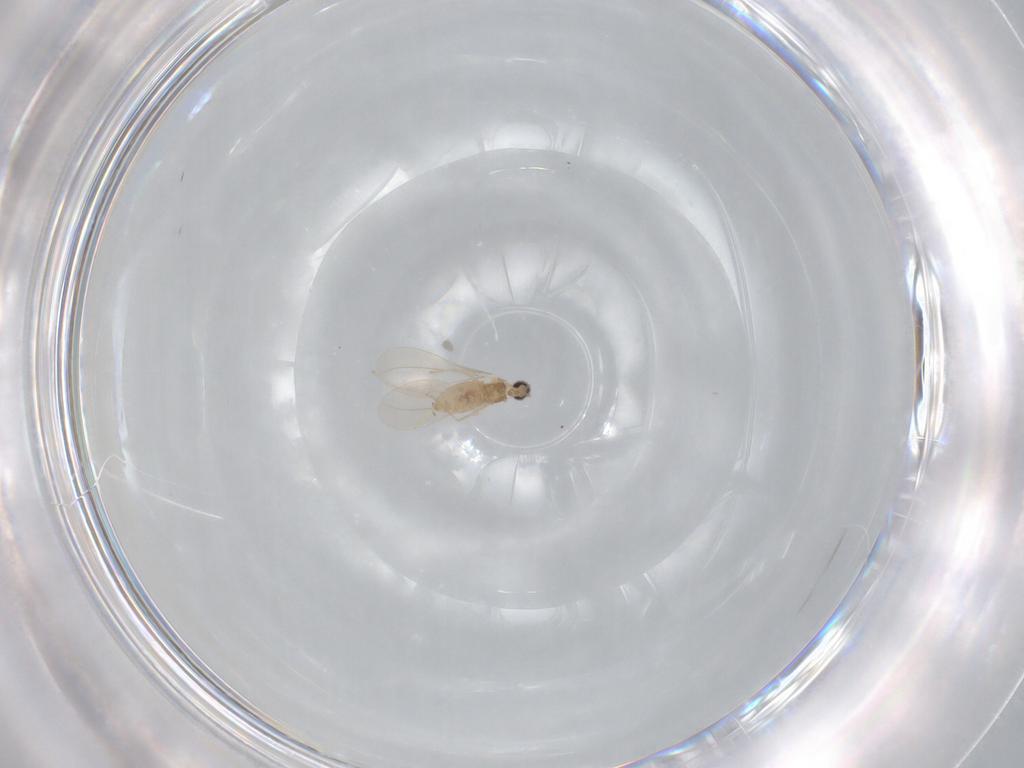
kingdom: Animalia
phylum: Arthropoda
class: Insecta
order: Diptera
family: Cecidomyiidae
